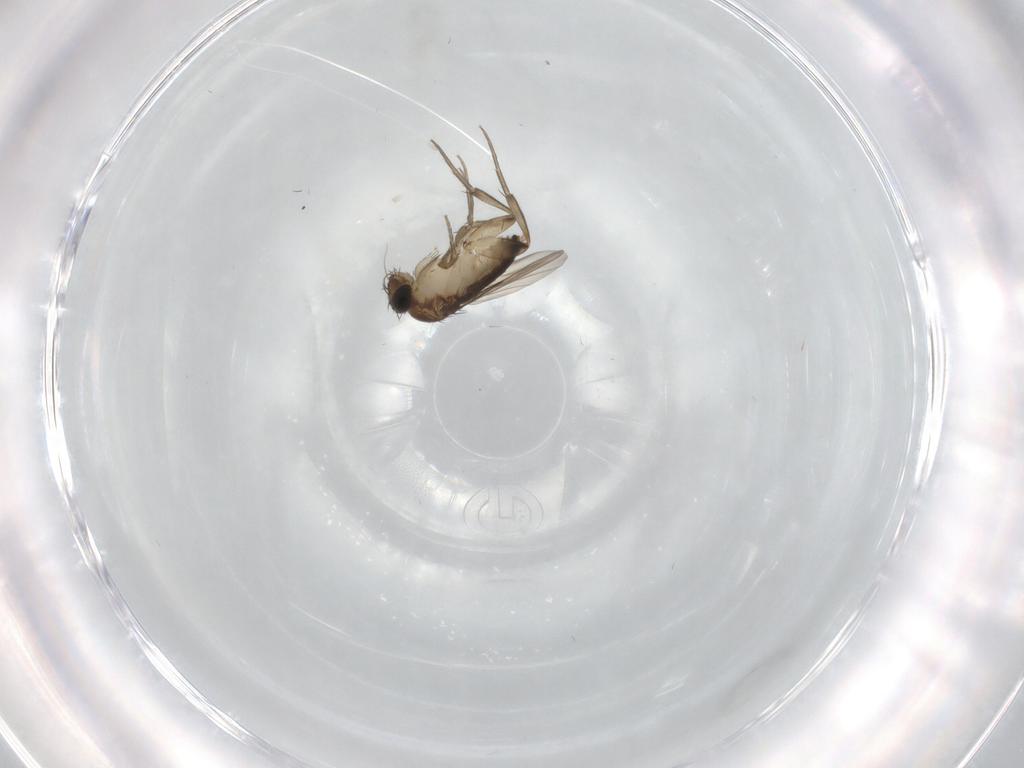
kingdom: Animalia
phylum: Arthropoda
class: Insecta
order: Diptera
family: Phoridae
